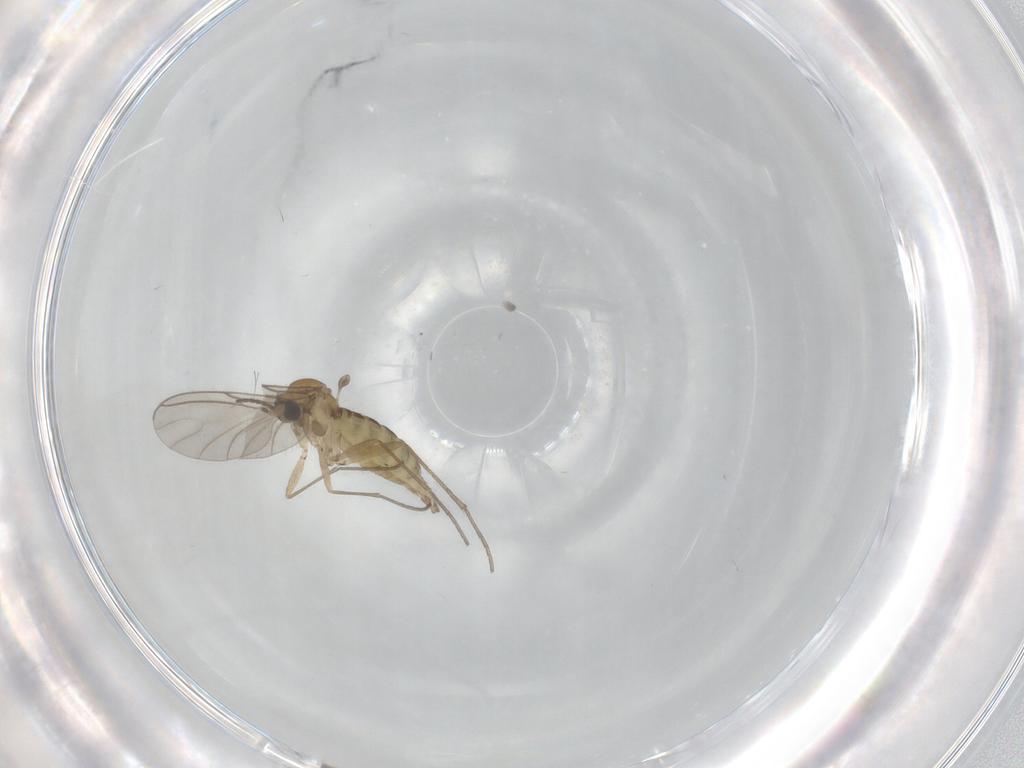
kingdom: Animalia
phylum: Arthropoda
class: Insecta
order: Diptera
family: Sciaridae
